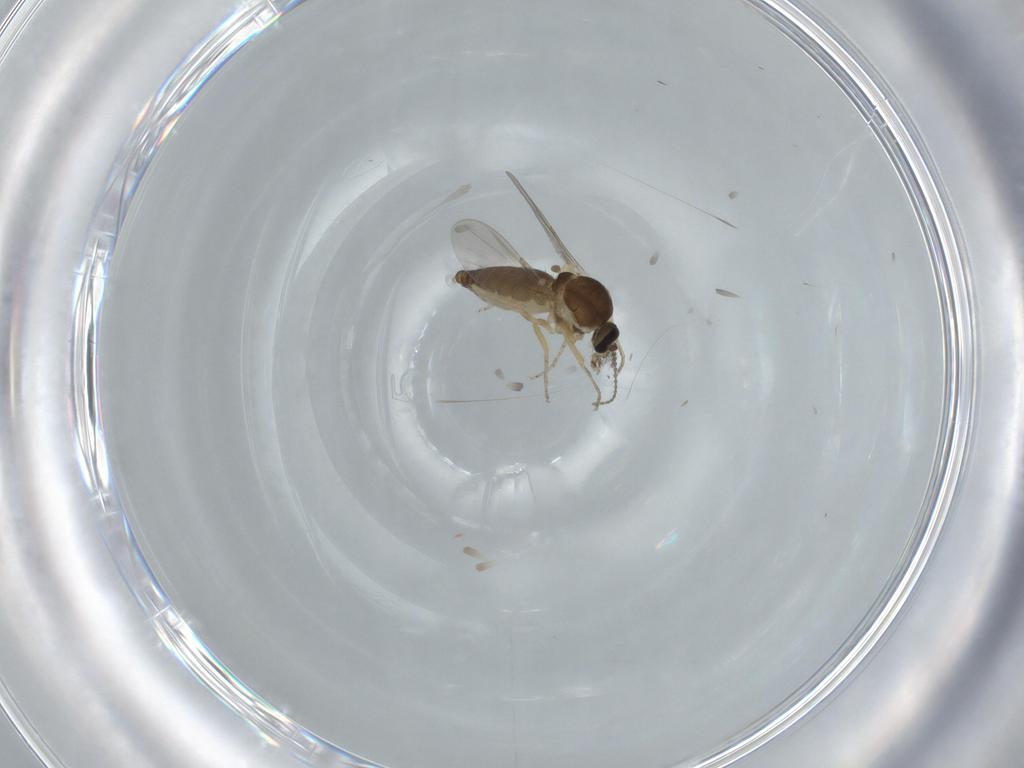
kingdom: Animalia
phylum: Arthropoda
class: Insecta
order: Diptera
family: Ceratopogonidae
